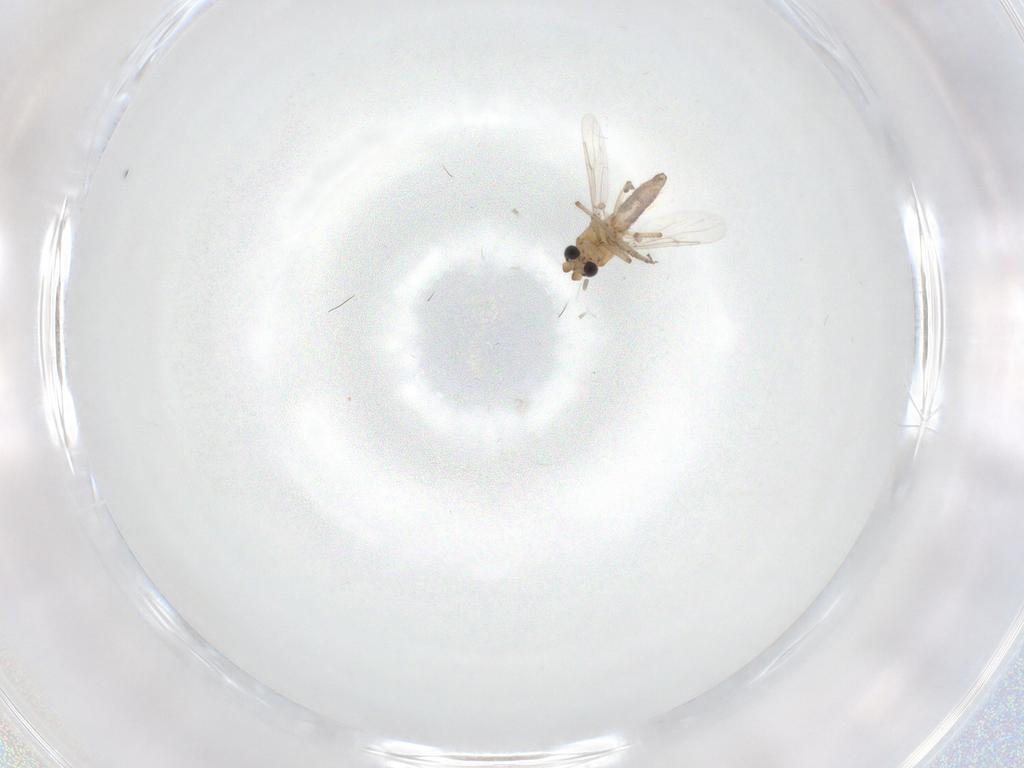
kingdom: Animalia
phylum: Arthropoda
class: Insecta
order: Diptera
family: Ceratopogonidae
